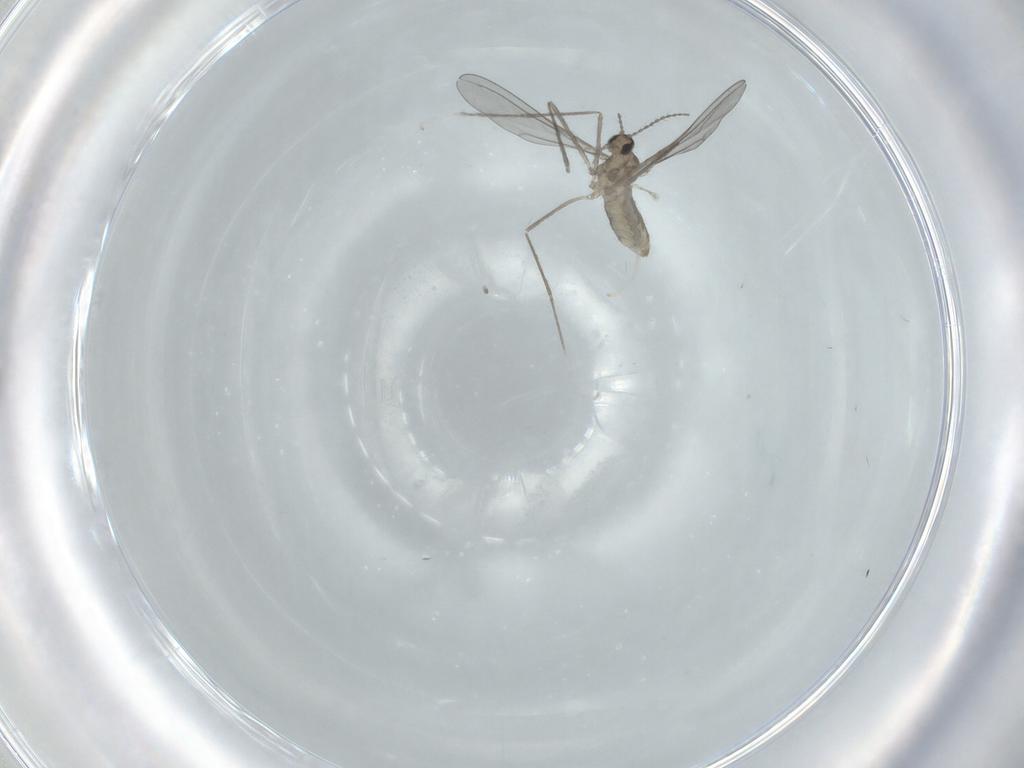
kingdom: Animalia
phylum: Arthropoda
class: Insecta
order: Diptera
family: Cecidomyiidae
